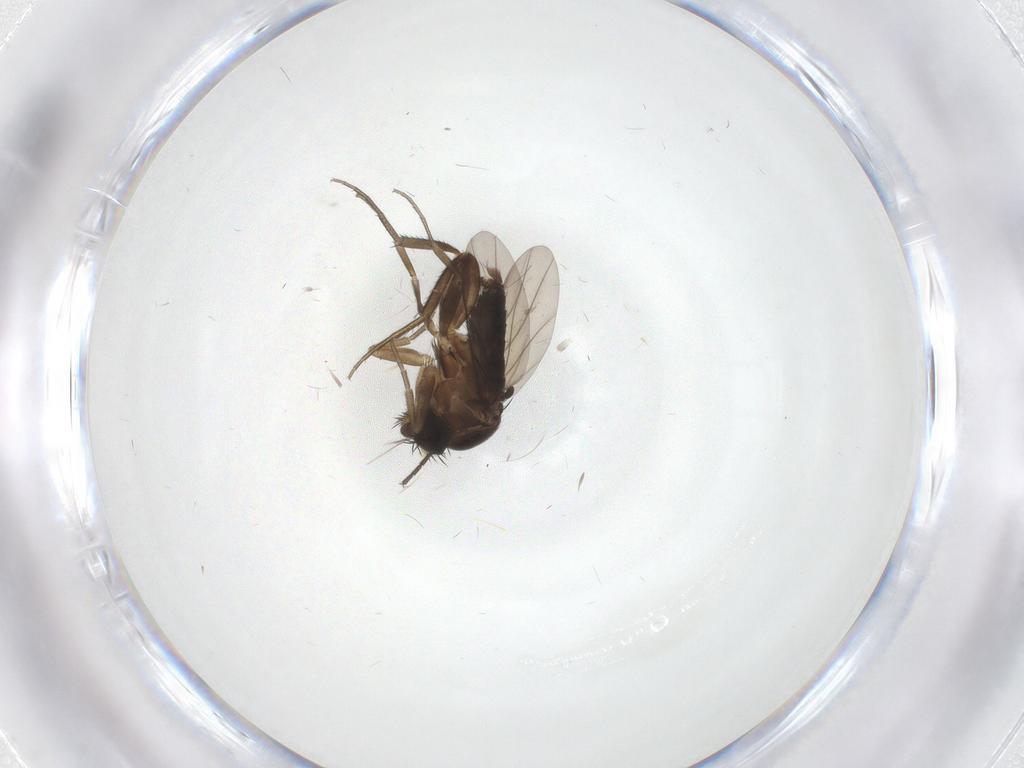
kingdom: Animalia
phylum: Arthropoda
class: Insecta
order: Diptera
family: Phoridae
